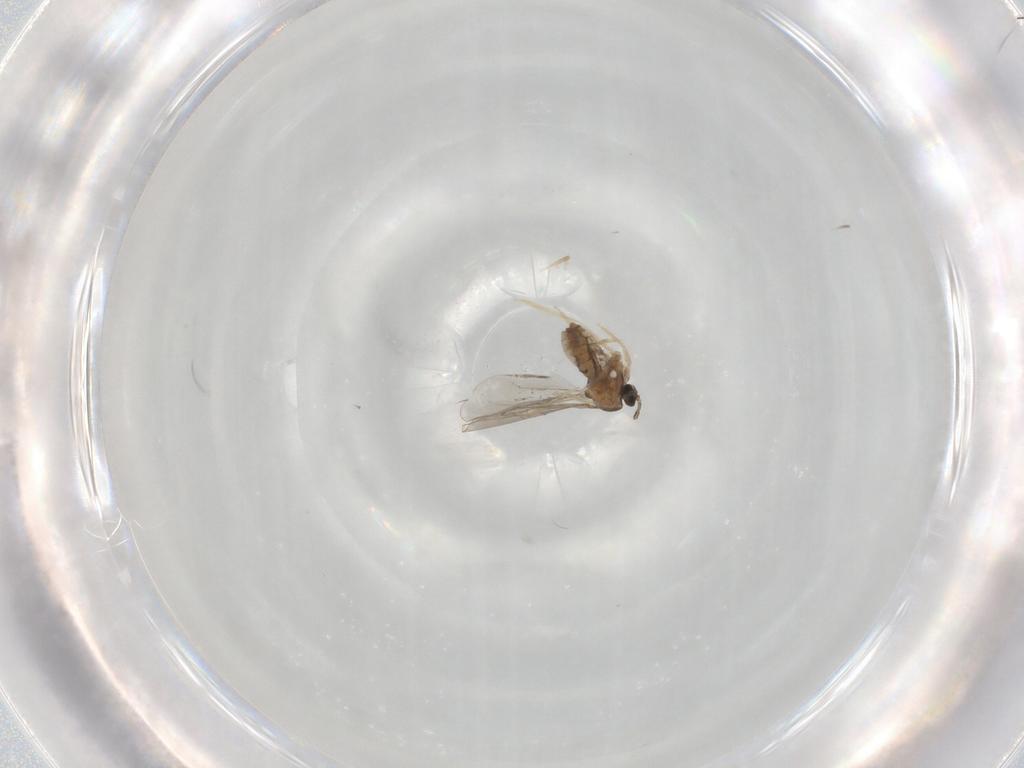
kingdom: Animalia
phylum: Arthropoda
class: Insecta
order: Diptera
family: Cecidomyiidae
